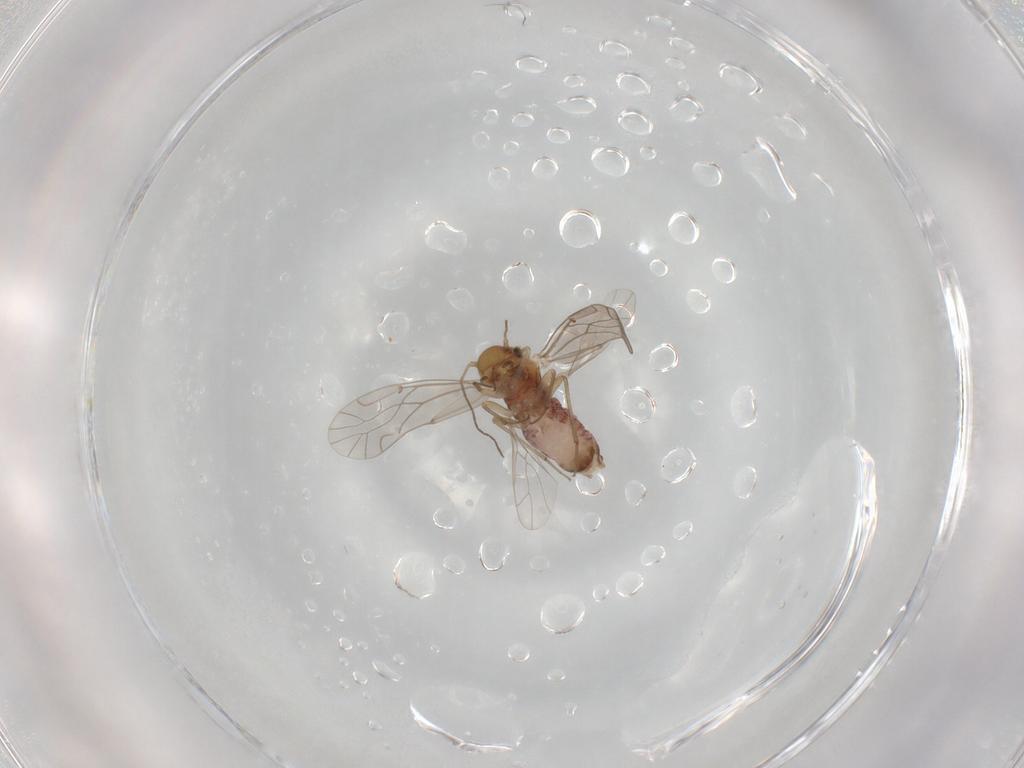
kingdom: Animalia
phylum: Arthropoda
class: Insecta
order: Psocodea
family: Lachesillidae
